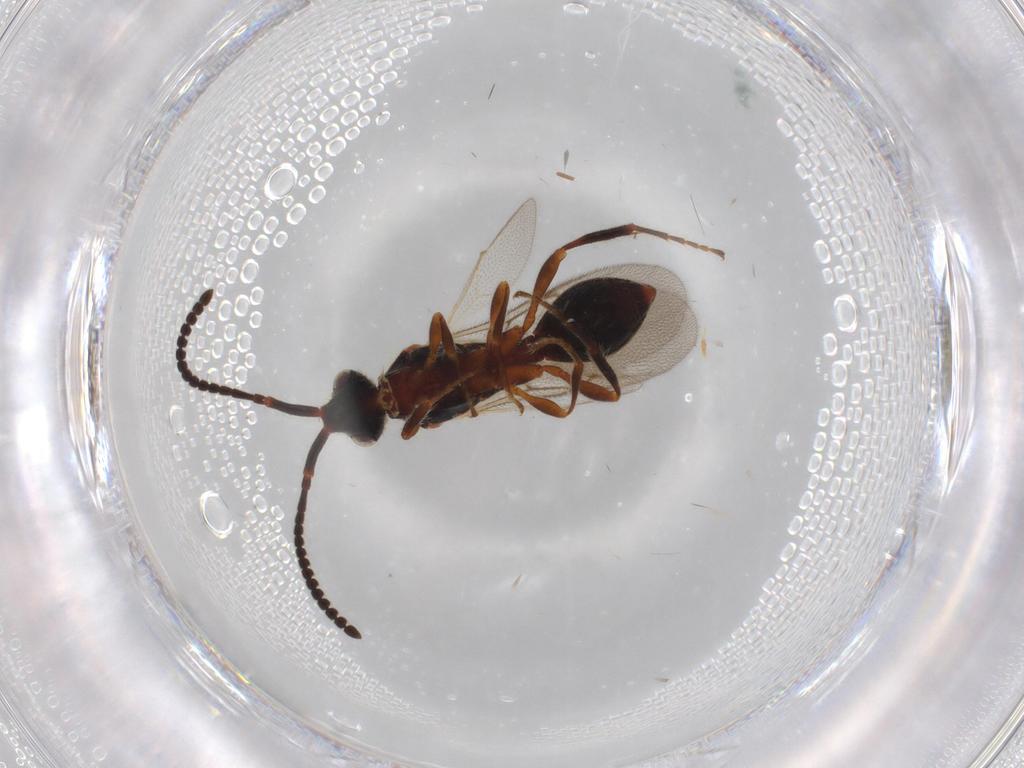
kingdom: Animalia
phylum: Arthropoda
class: Insecta
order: Hymenoptera
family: Diapriidae
